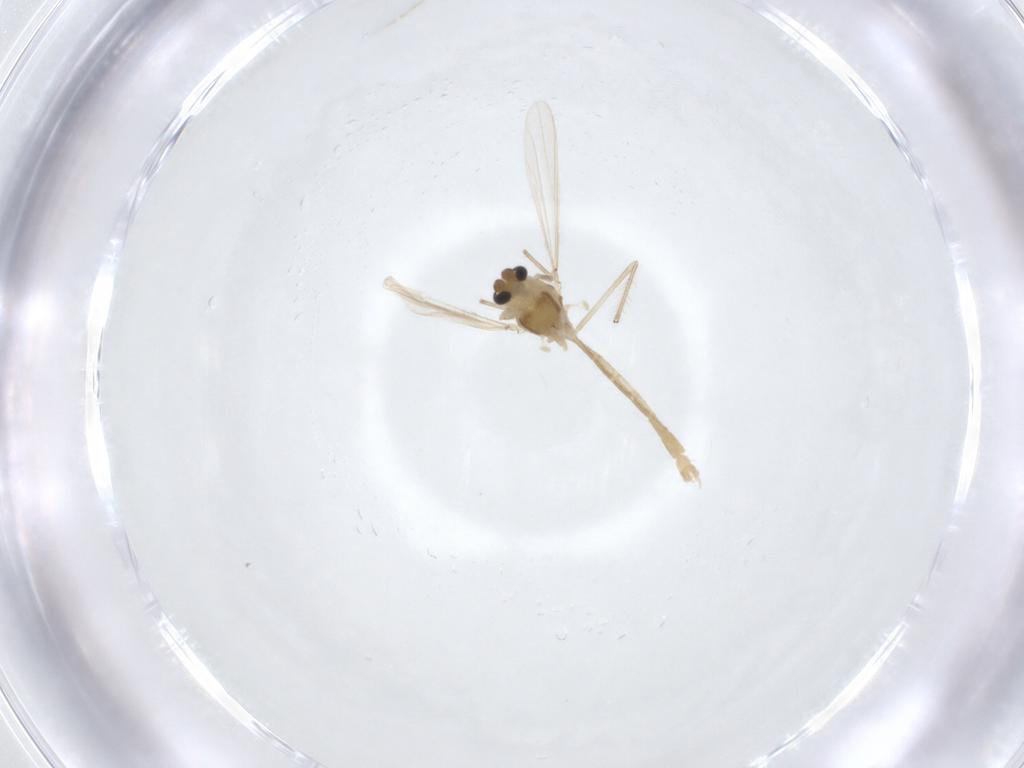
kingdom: Animalia
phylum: Arthropoda
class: Insecta
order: Diptera
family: Chironomidae
